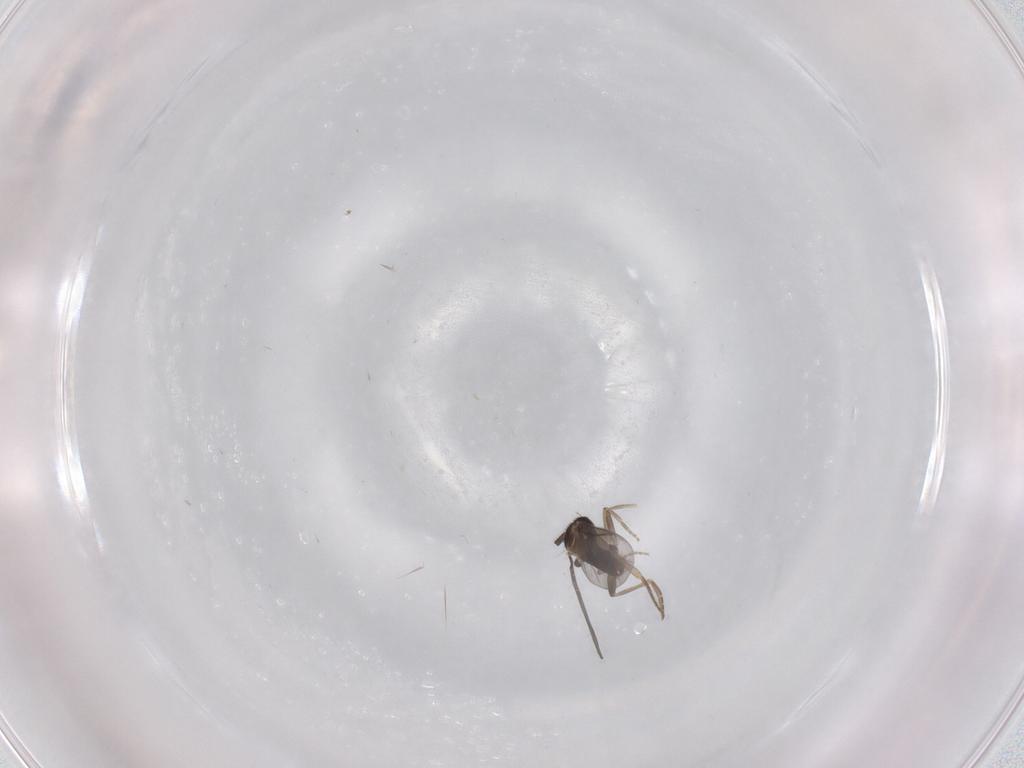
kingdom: Animalia
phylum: Arthropoda
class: Insecta
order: Diptera
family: Sciaridae
